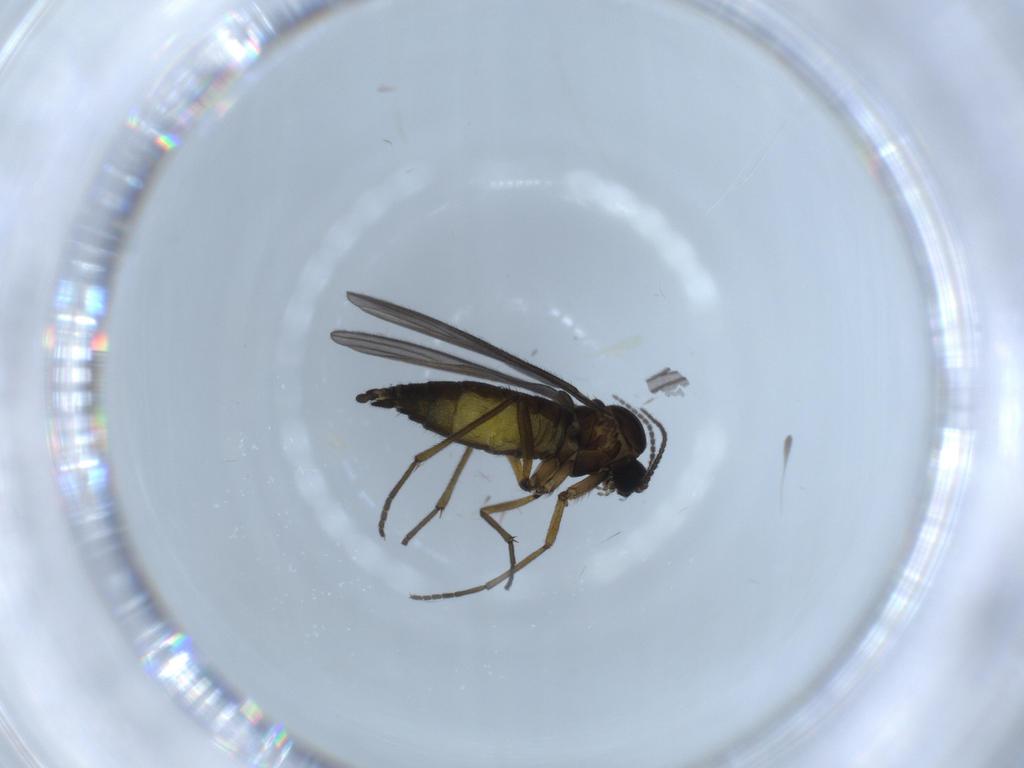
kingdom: Animalia
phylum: Arthropoda
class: Insecta
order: Diptera
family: Sciaridae
